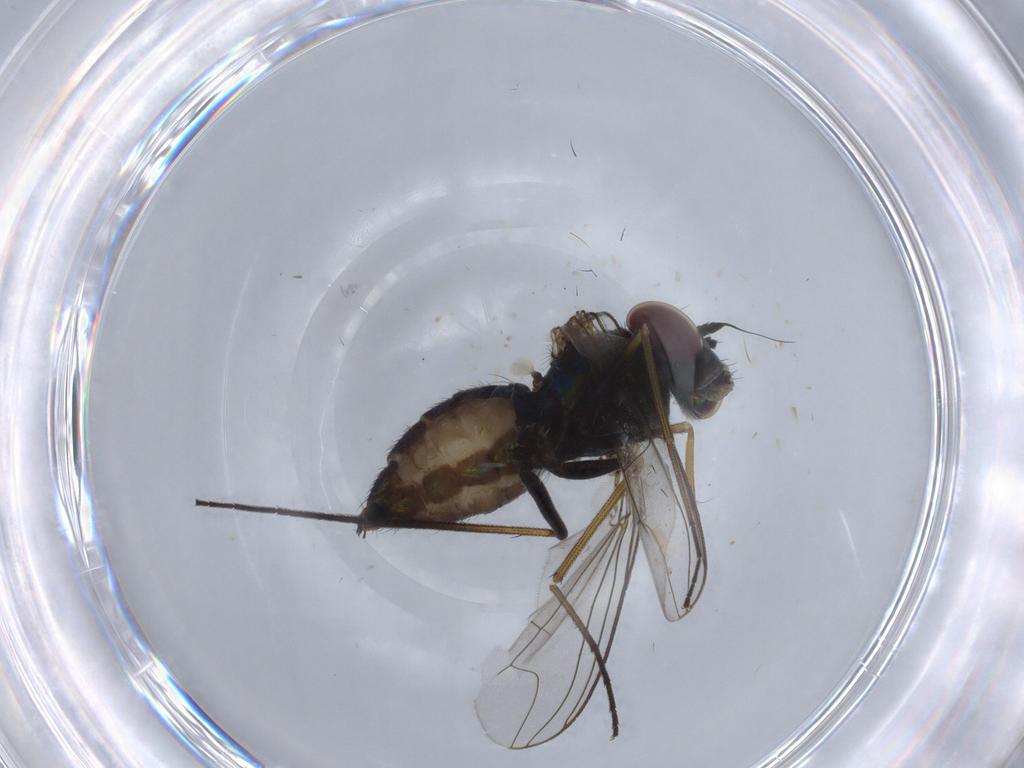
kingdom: Animalia
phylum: Arthropoda
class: Insecta
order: Diptera
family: Dolichopodidae
